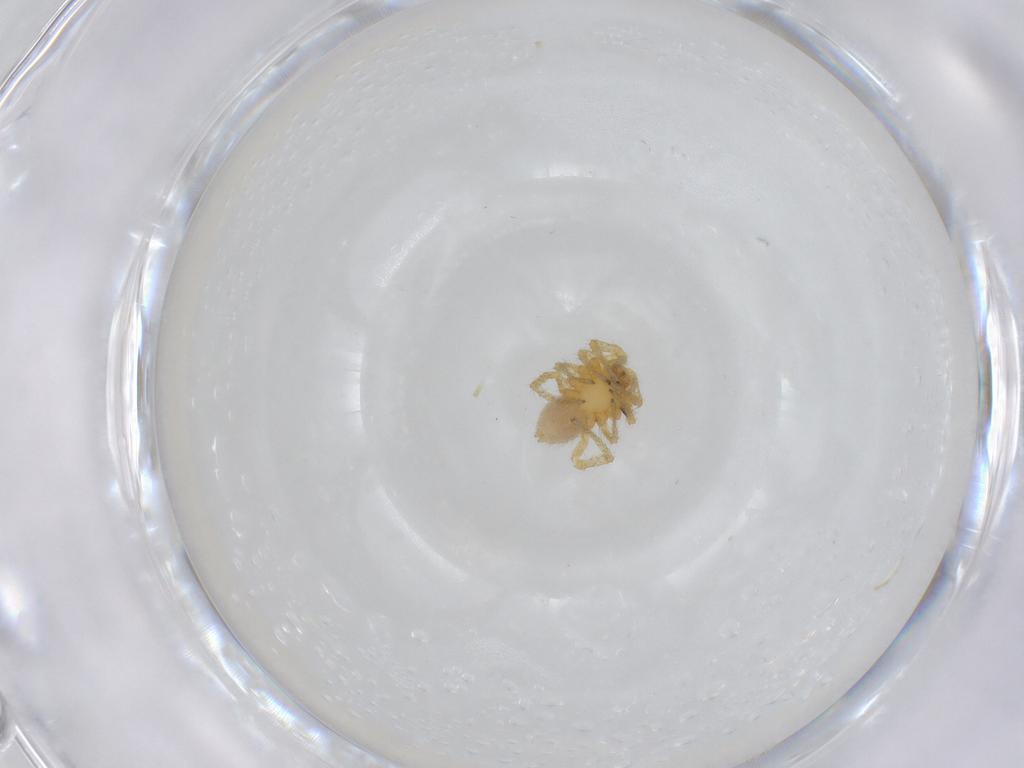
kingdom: Animalia
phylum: Arthropoda
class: Arachnida
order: Araneae
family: Linyphiidae
